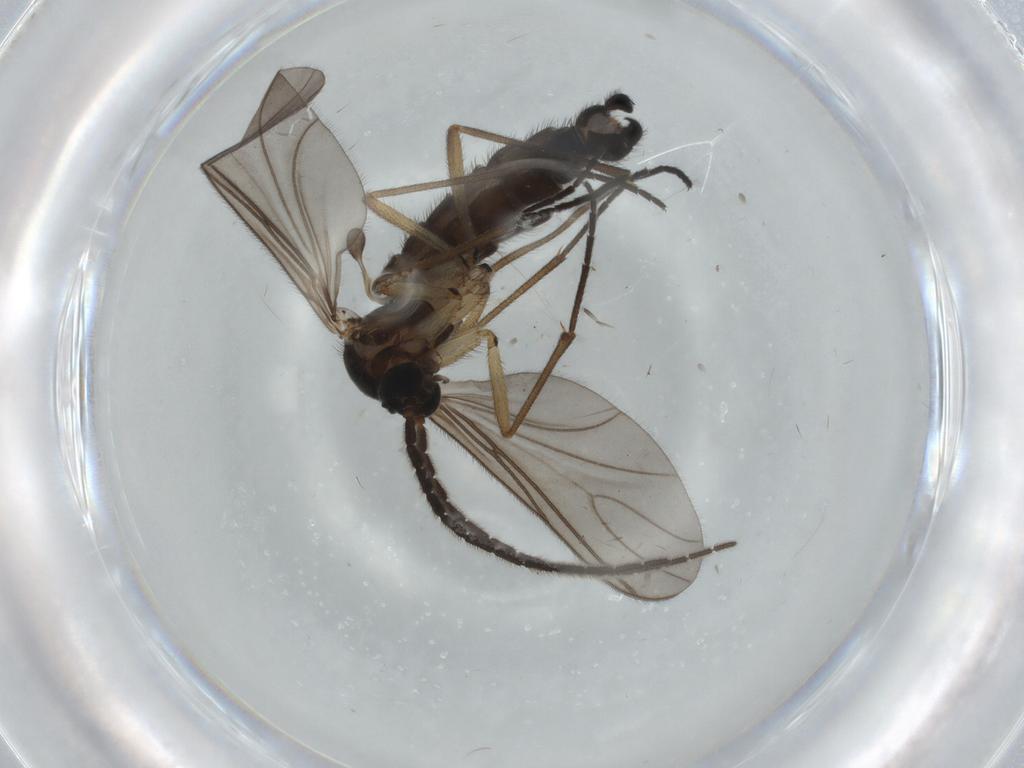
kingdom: Animalia
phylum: Arthropoda
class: Insecta
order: Diptera
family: Sciaridae
